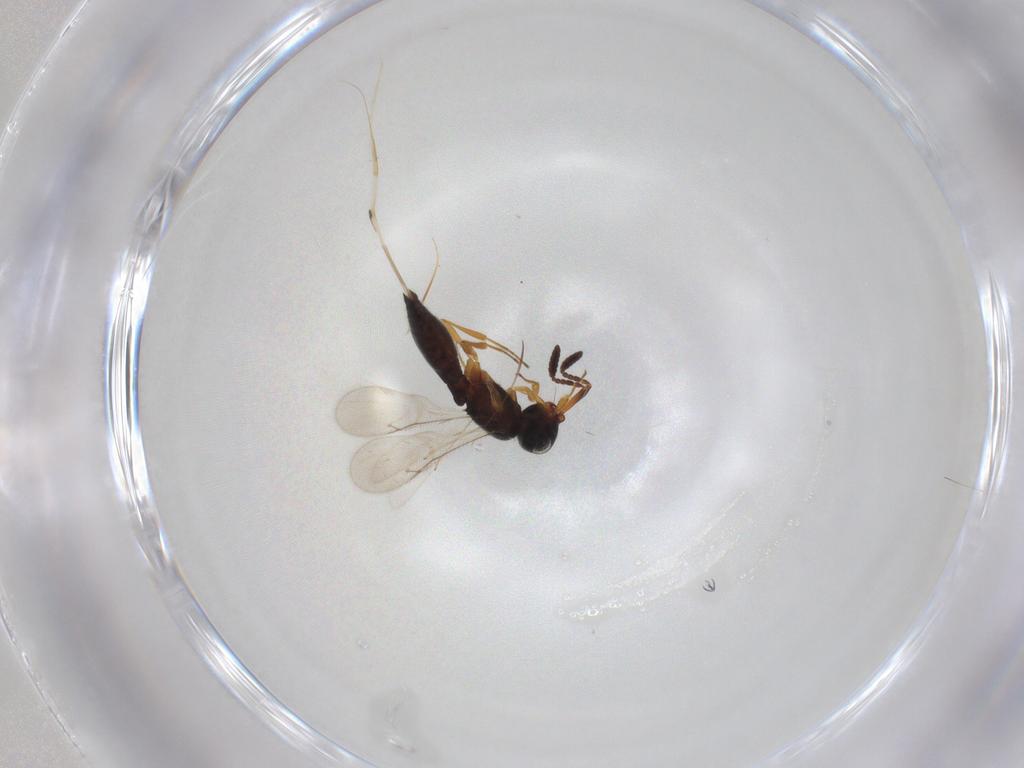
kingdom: Animalia
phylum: Arthropoda
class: Insecta
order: Hymenoptera
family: Scelionidae
